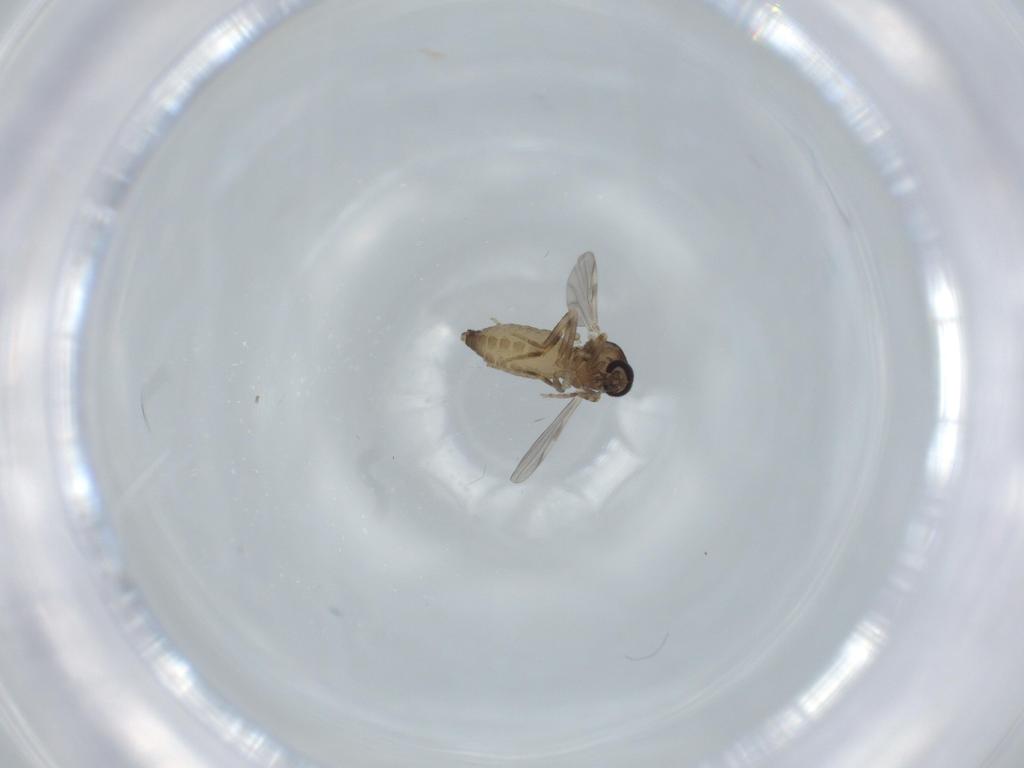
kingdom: Animalia
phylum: Arthropoda
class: Insecta
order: Diptera
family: Ceratopogonidae
